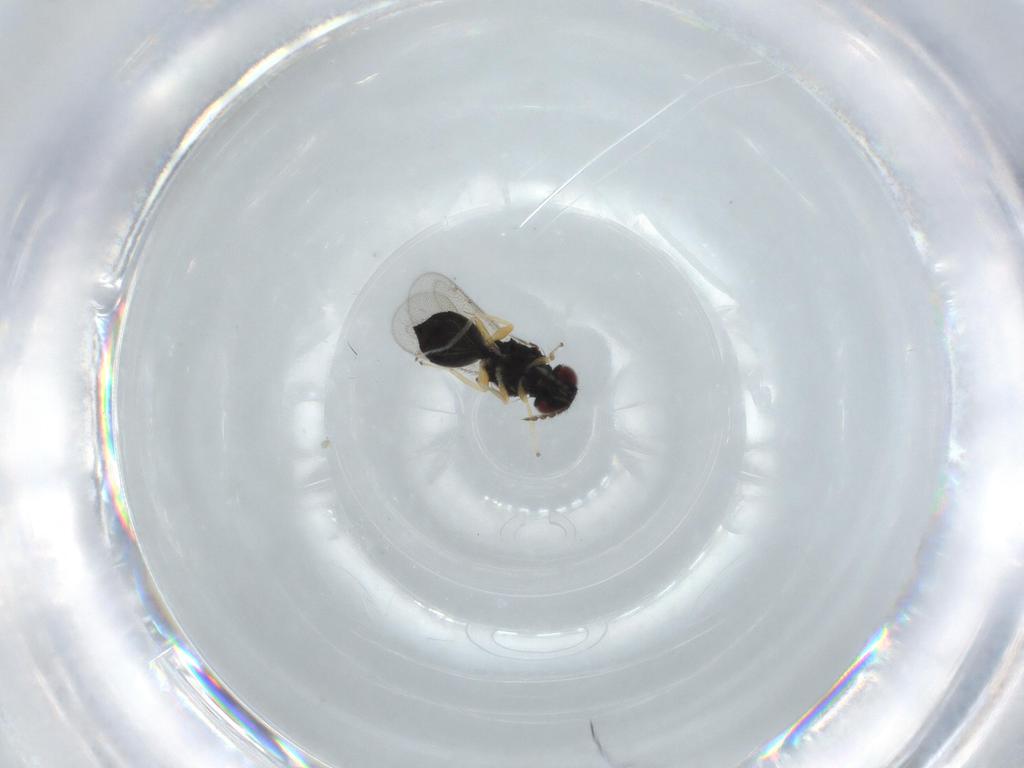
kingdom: Animalia
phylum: Arthropoda
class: Insecta
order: Hymenoptera
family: Eulophidae
